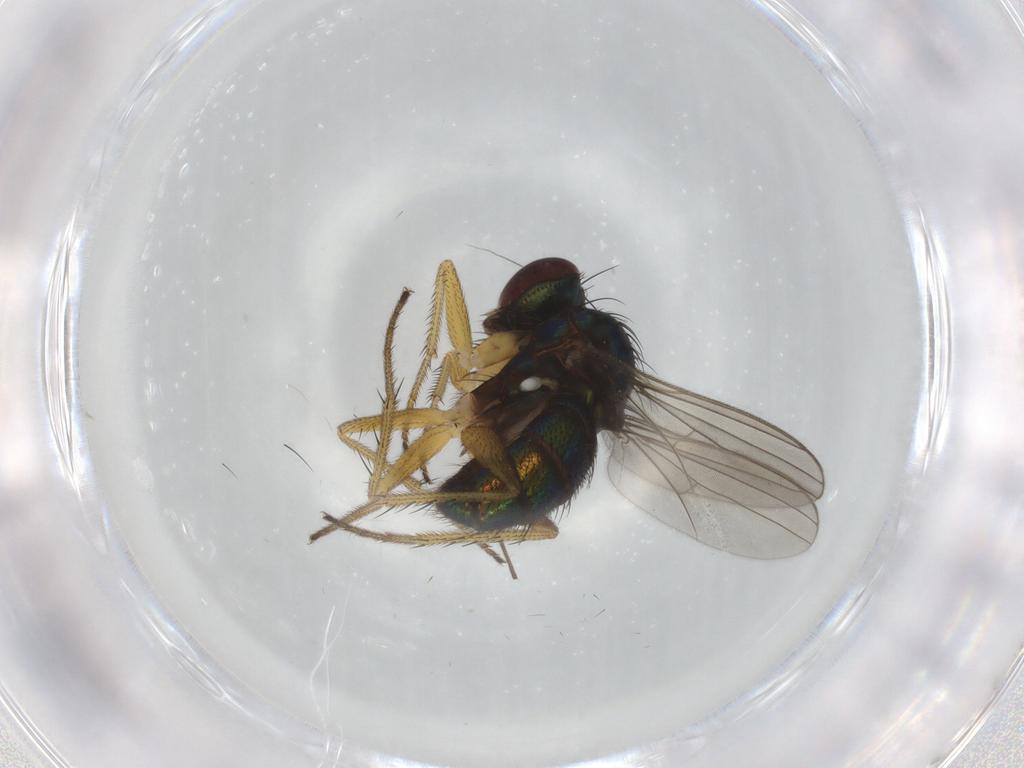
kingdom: Animalia
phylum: Arthropoda
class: Insecta
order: Diptera
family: Dolichopodidae
